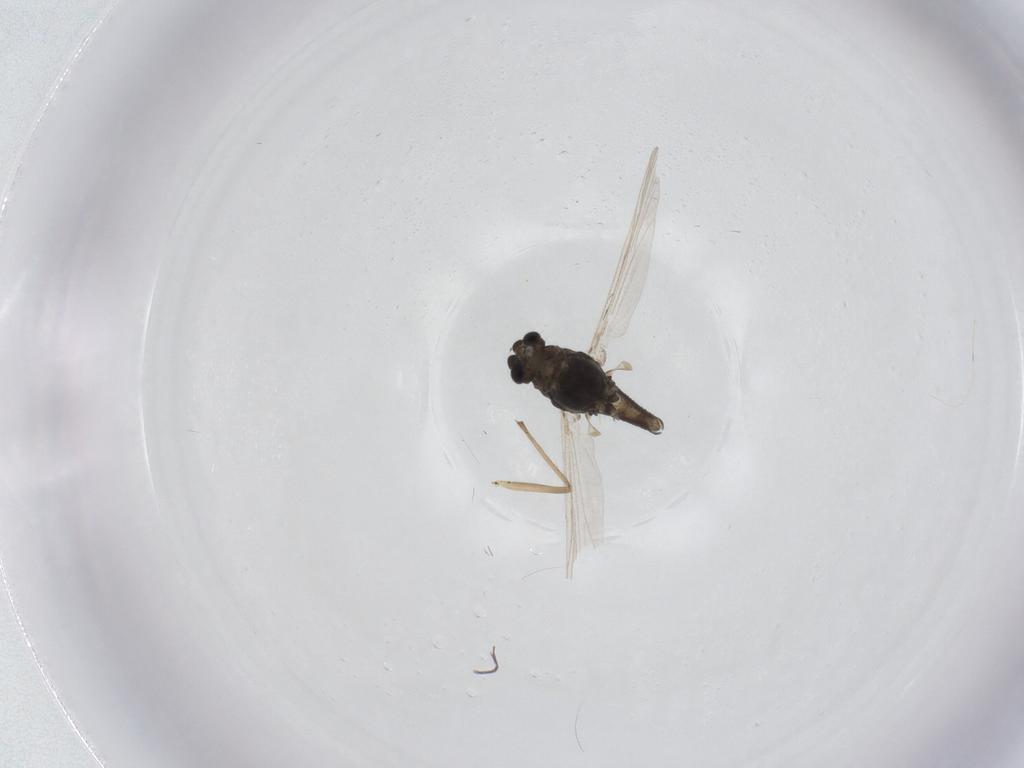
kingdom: Animalia
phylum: Arthropoda
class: Insecta
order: Diptera
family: Chironomidae
